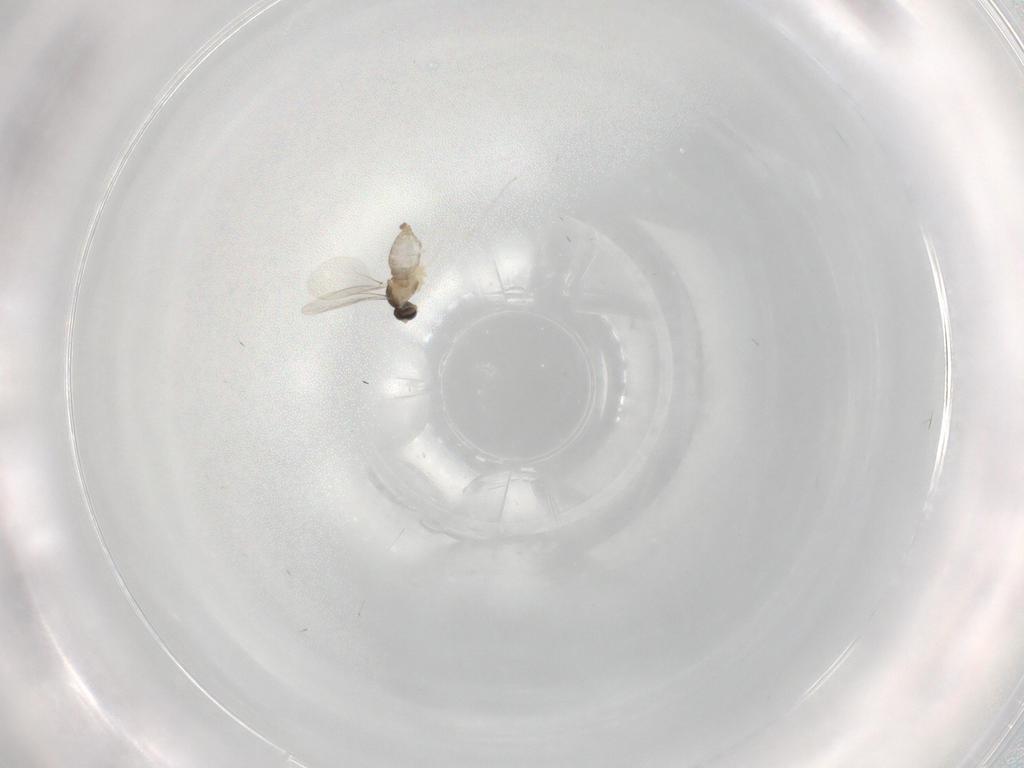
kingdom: Animalia
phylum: Arthropoda
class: Insecta
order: Diptera
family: Cecidomyiidae
